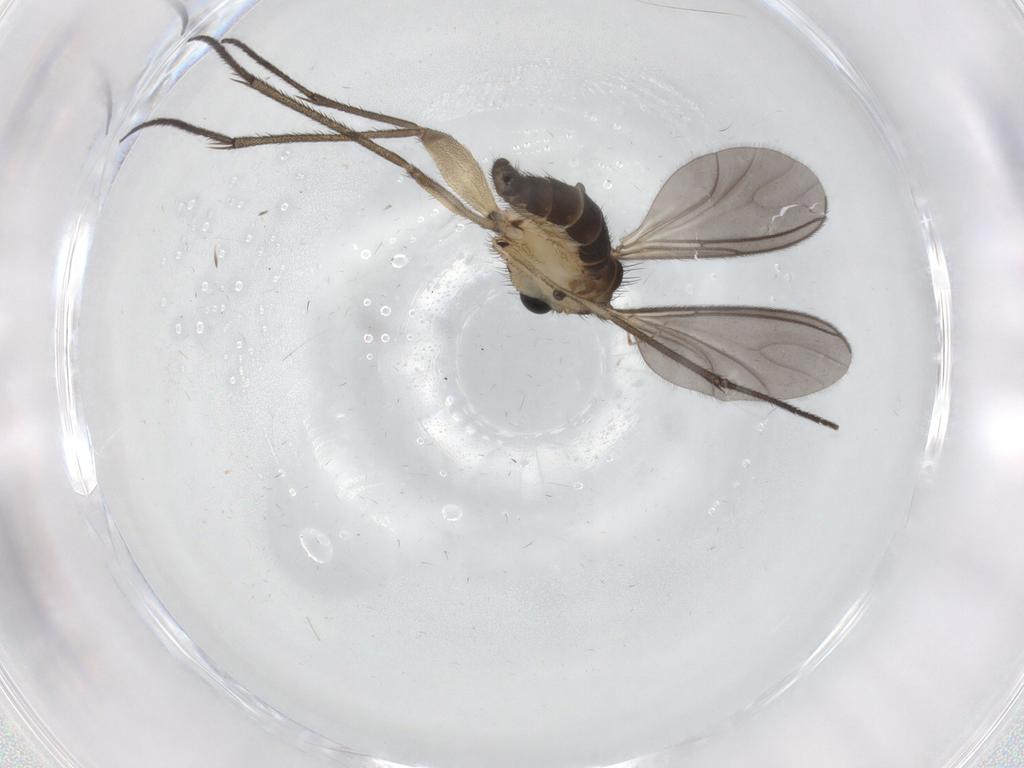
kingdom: Animalia
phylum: Arthropoda
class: Insecta
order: Diptera
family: Sciaridae
